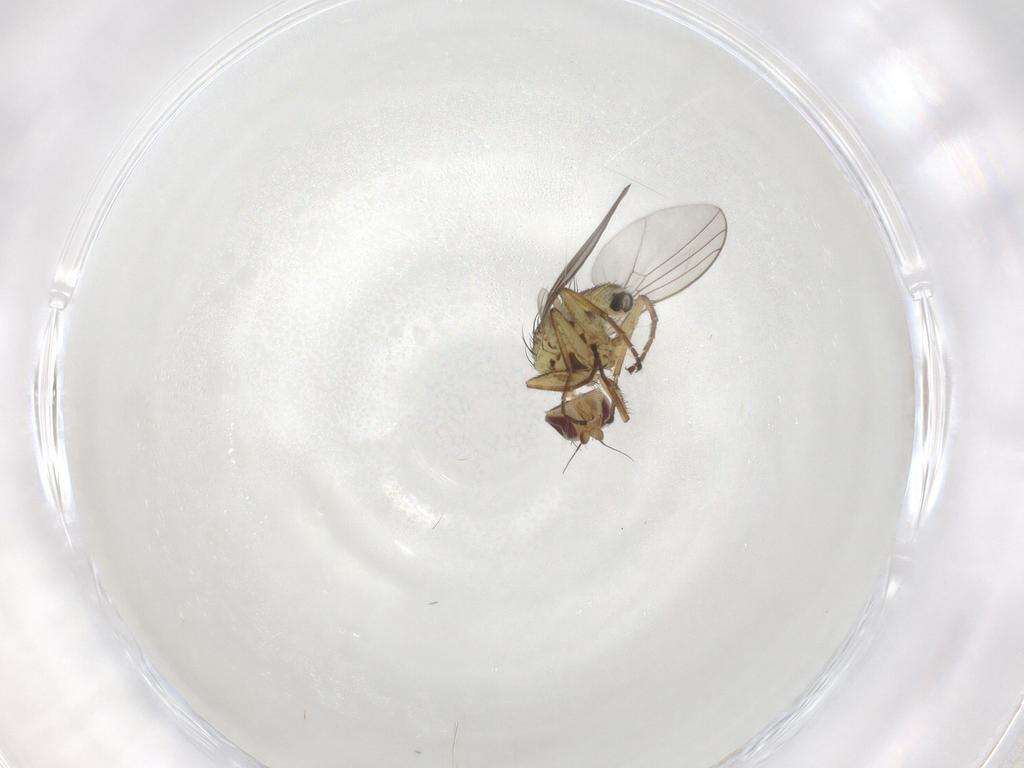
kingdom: Animalia
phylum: Arthropoda
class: Insecta
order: Diptera
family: Agromyzidae
